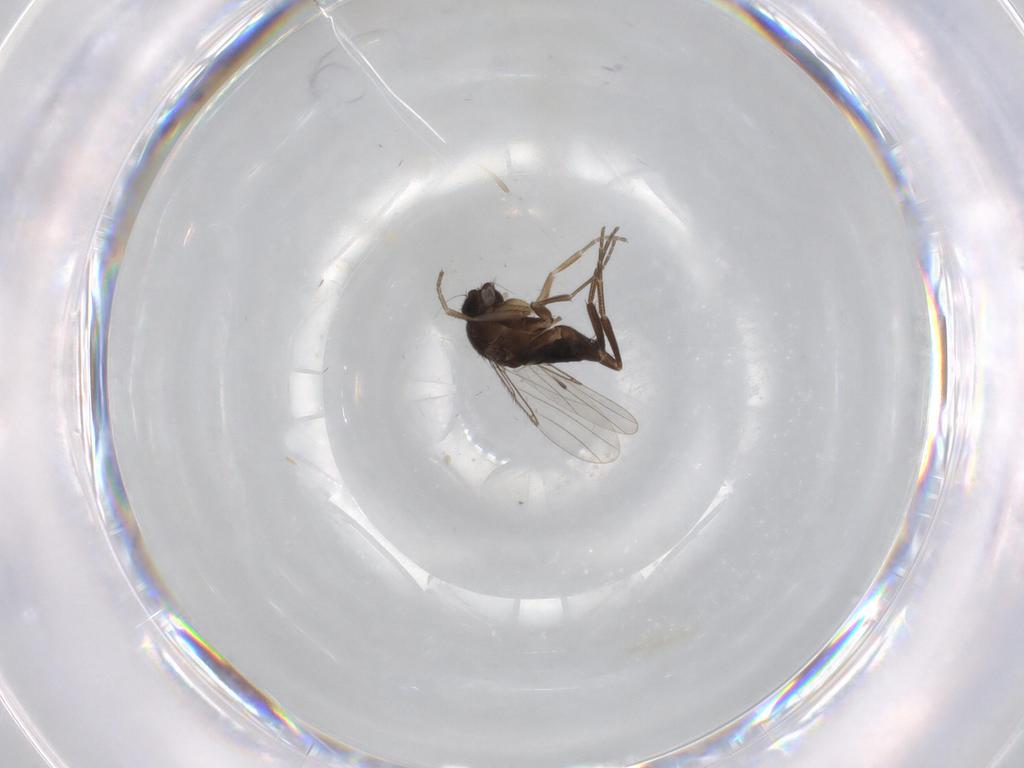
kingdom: Animalia
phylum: Arthropoda
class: Insecta
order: Diptera
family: Phoridae
